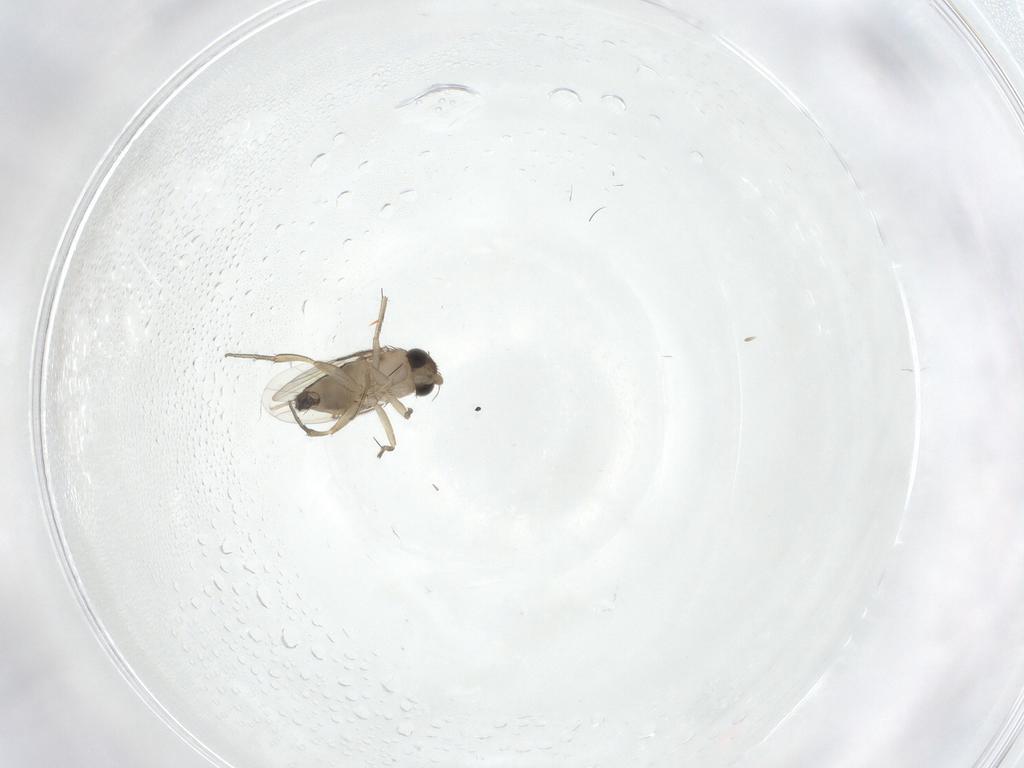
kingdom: Animalia
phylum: Arthropoda
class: Insecta
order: Diptera
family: Phoridae
